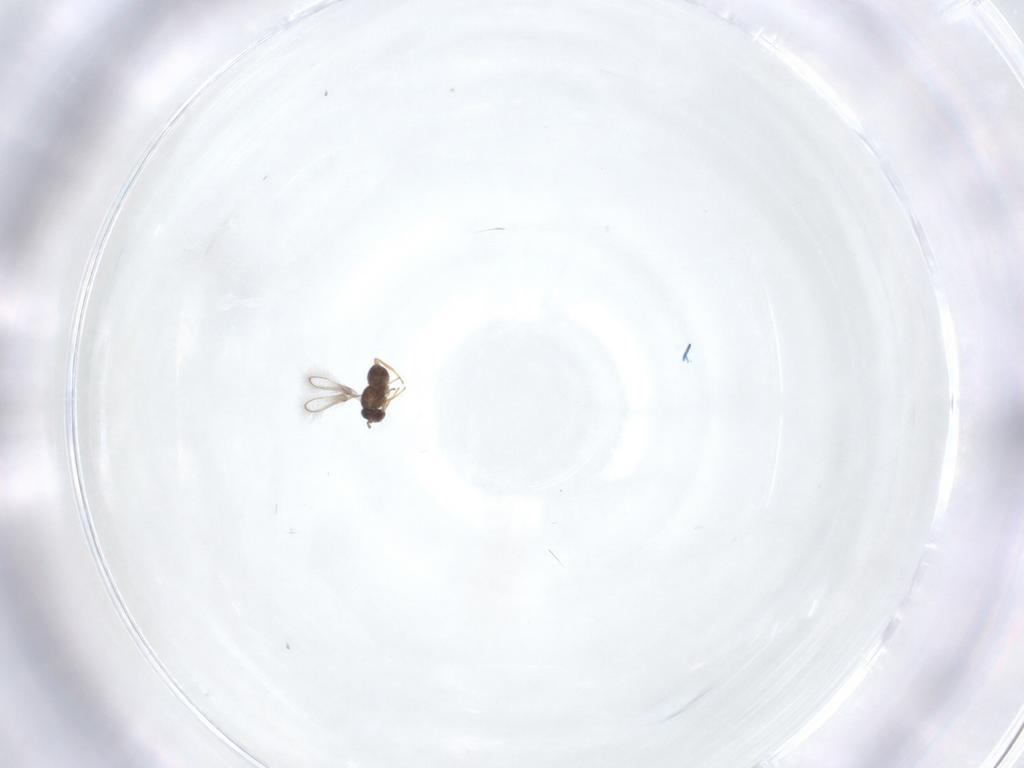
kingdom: Animalia
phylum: Arthropoda
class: Insecta
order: Hymenoptera
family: Mymaridae
